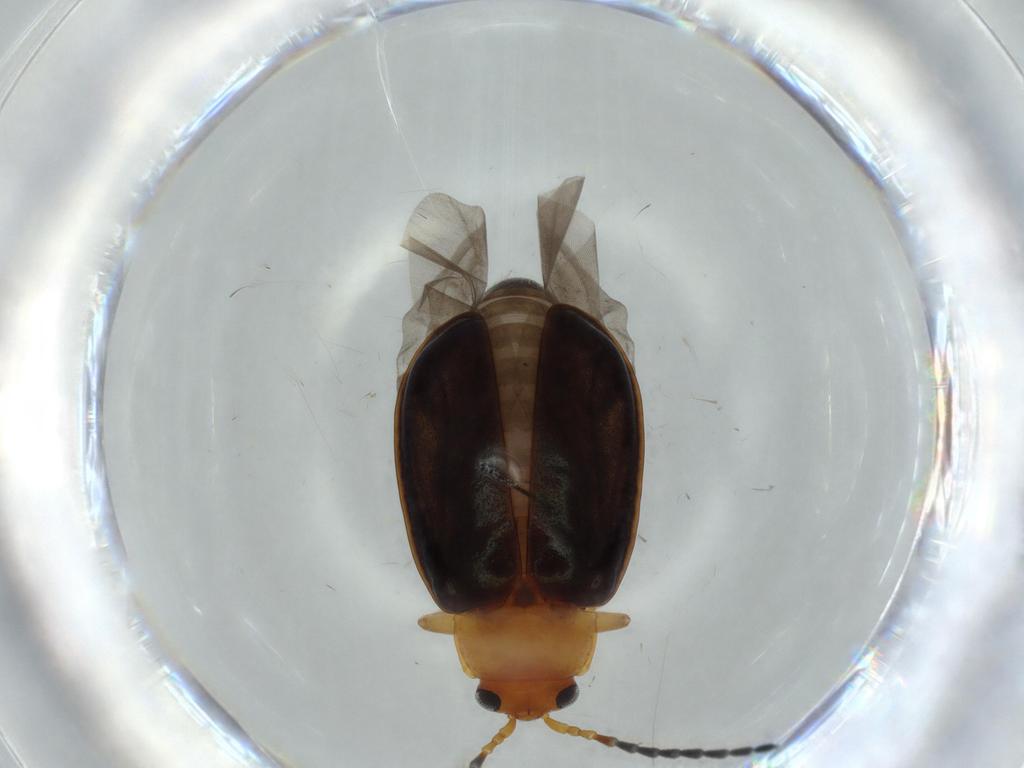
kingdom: Animalia
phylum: Arthropoda
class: Insecta
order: Coleoptera
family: Chrysomelidae
